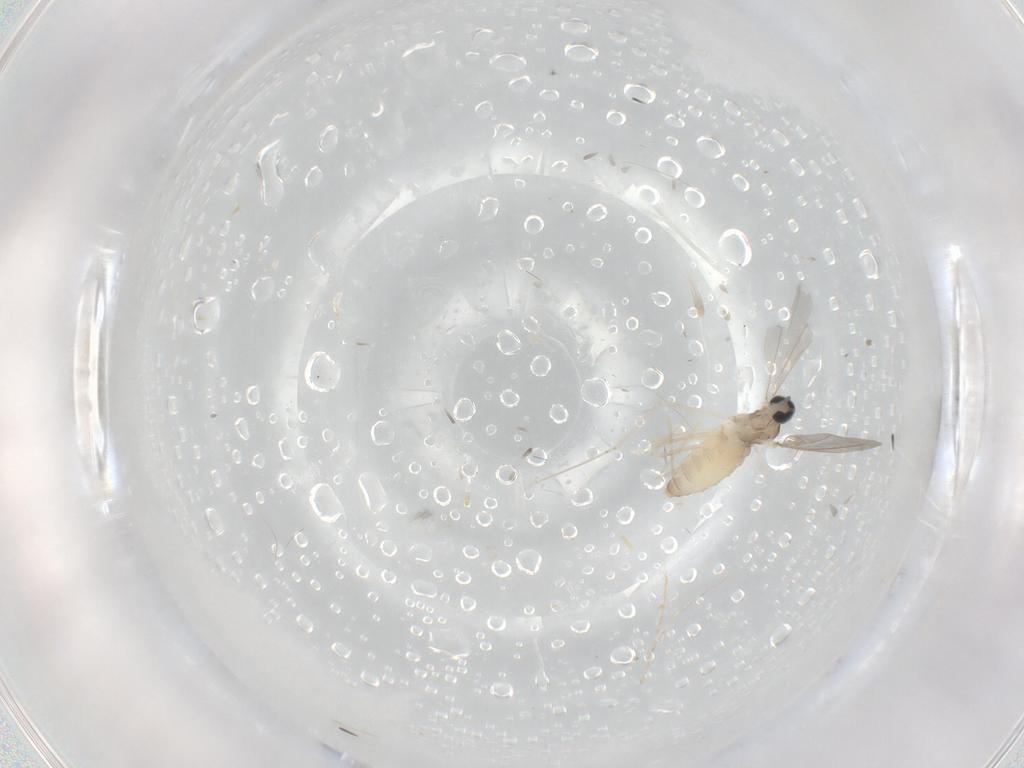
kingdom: Animalia
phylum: Arthropoda
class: Insecta
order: Diptera
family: Cecidomyiidae
